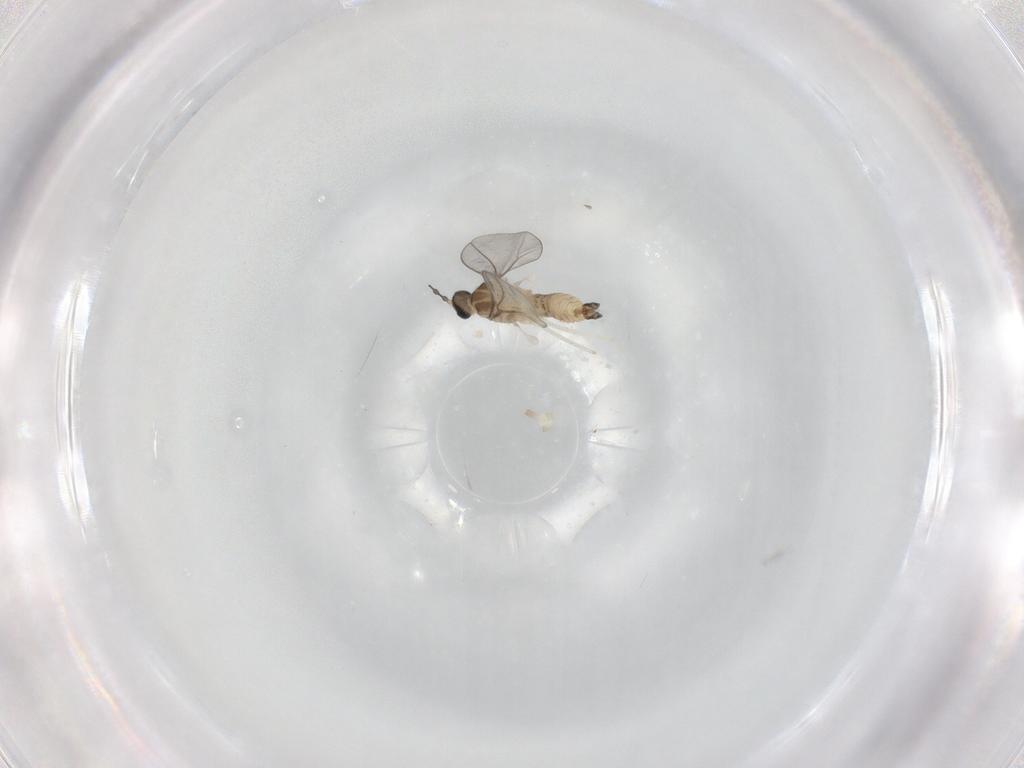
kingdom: Animalia
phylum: Arthropoda
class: Insecta
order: Diptera
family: Cecidomyiidae
